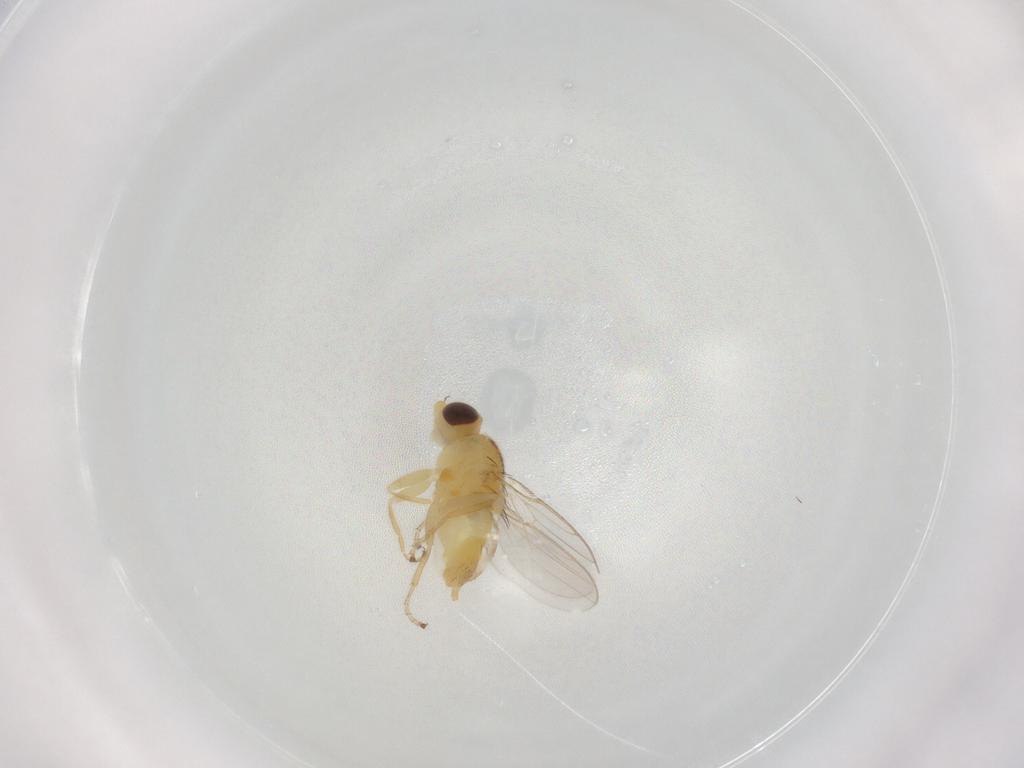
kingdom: Animalia
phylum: Arthropoda
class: Insecta
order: Diptera
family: Chloropidae
